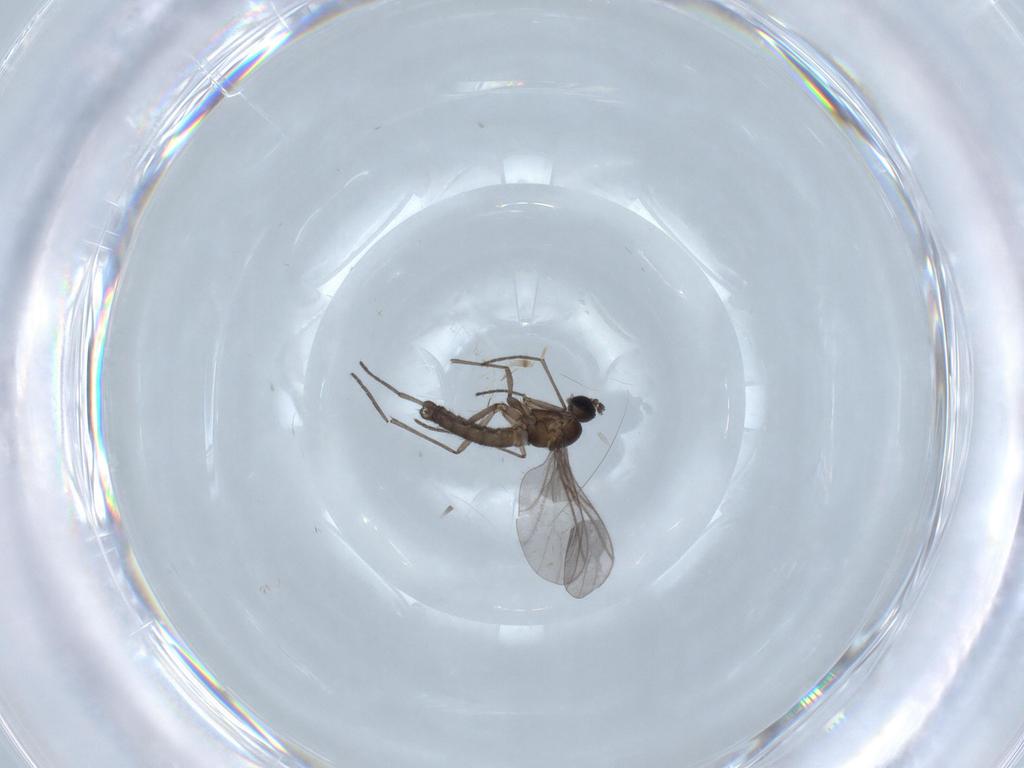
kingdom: Animalia
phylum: Arthropoda
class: Insecta
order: Diptera
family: Sciaridae
